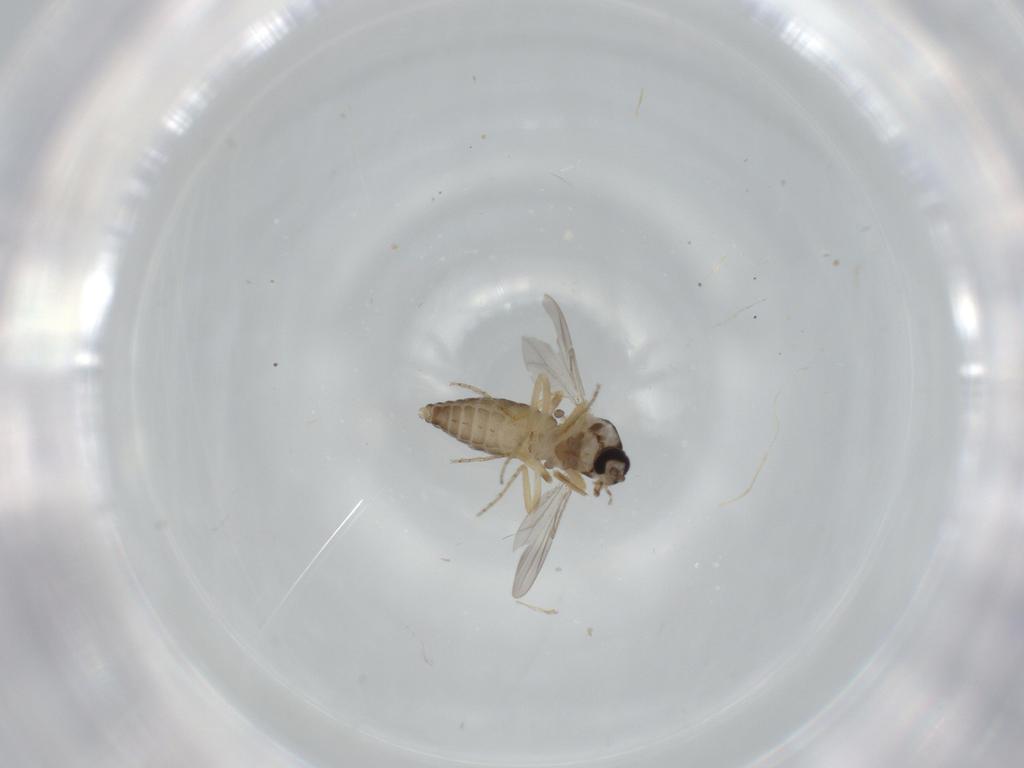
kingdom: Animalia
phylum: Arthropoda
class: Insecta
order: Diptera
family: Ceratopogonidae
